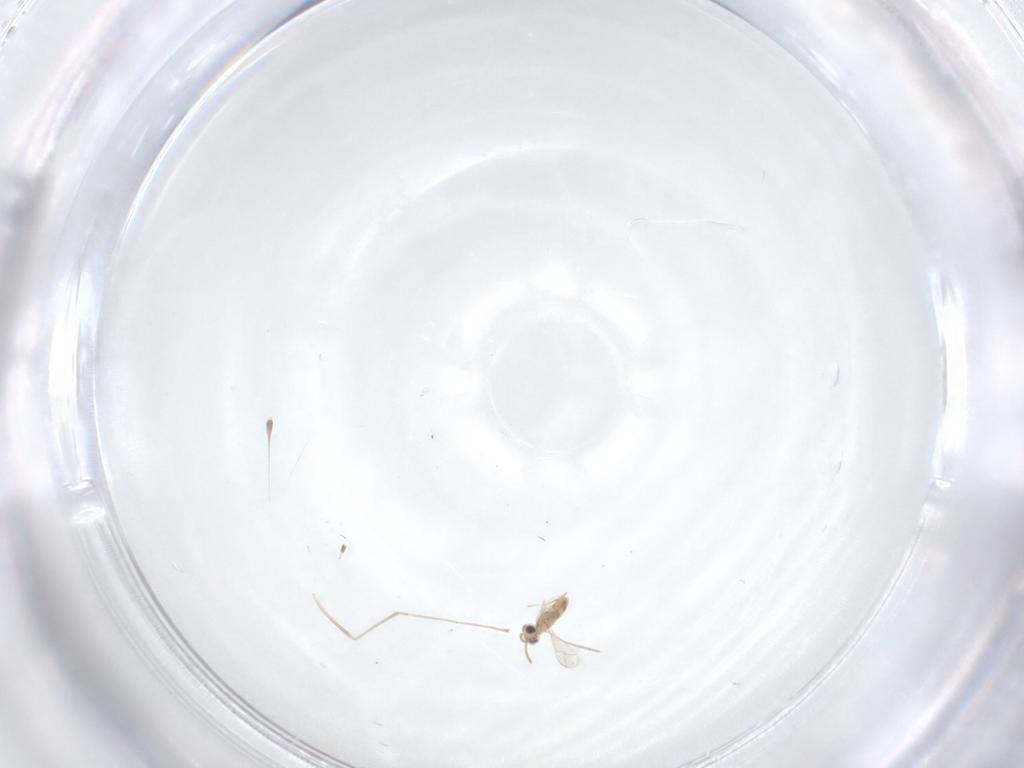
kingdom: Animalia
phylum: Arthropoda
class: Insecta
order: Diptera
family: Cecidomyiidae
